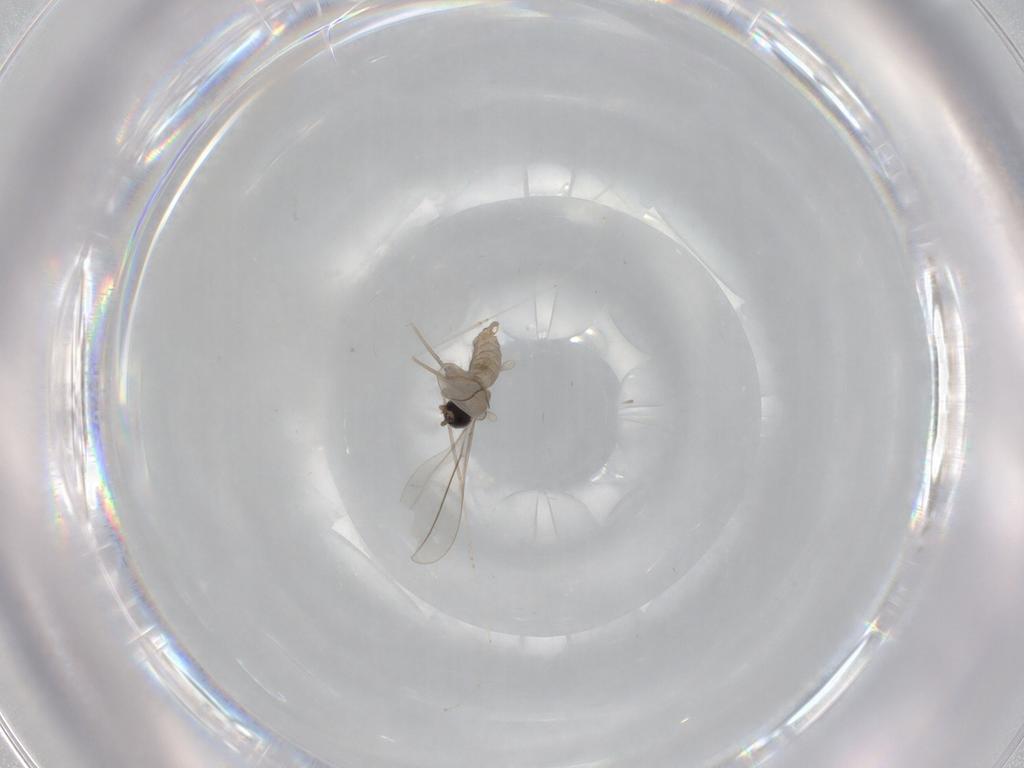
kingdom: Animalia
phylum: Arthropoda
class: Insecta
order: Diptera
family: Cecidomyiidae
